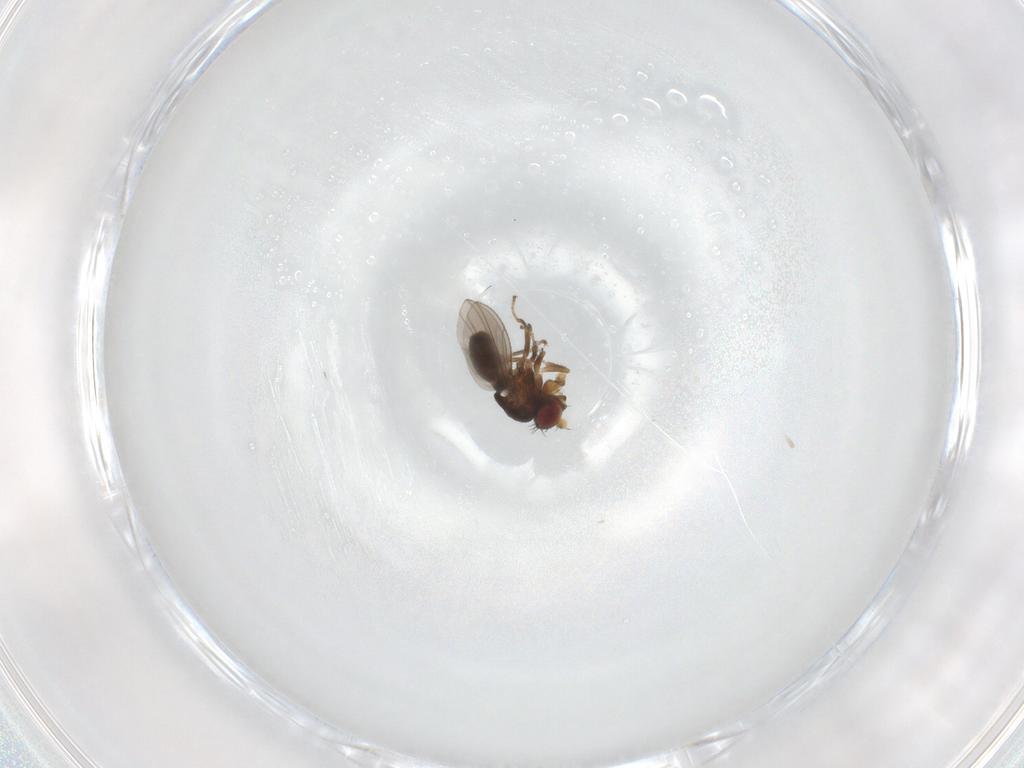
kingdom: Animalia
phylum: Arthropoda
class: Insecta
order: Diptera
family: Ephydridae
